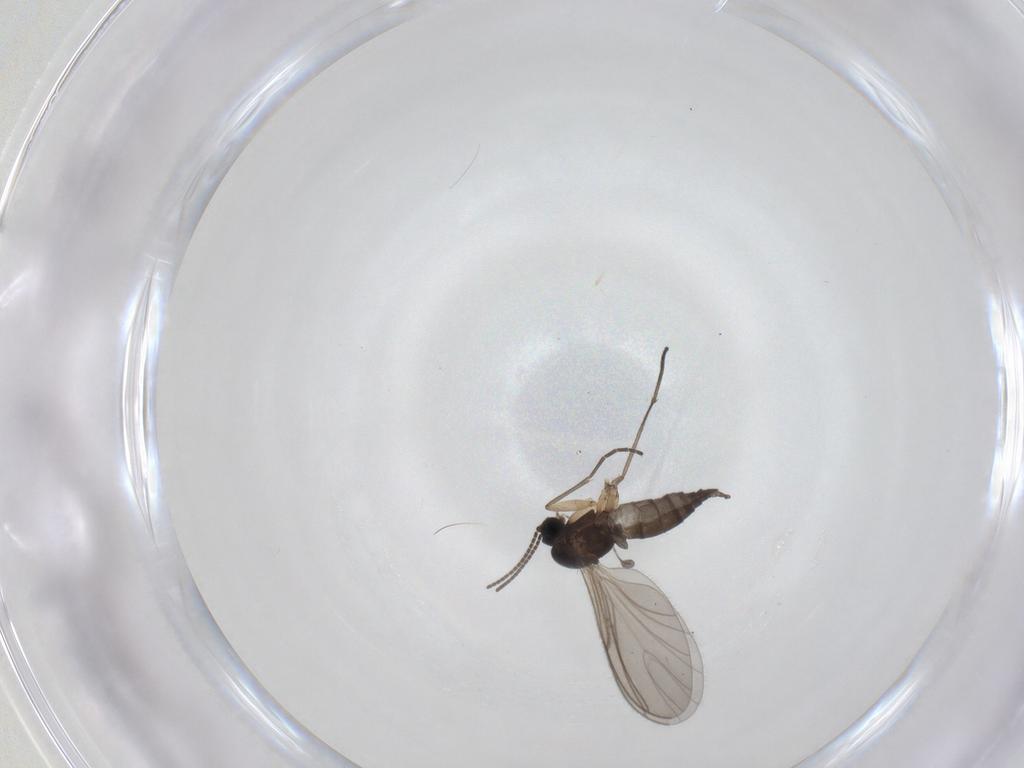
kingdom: Animalia
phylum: Arthropoda
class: Insecta
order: Diptera
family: Sciaridae
